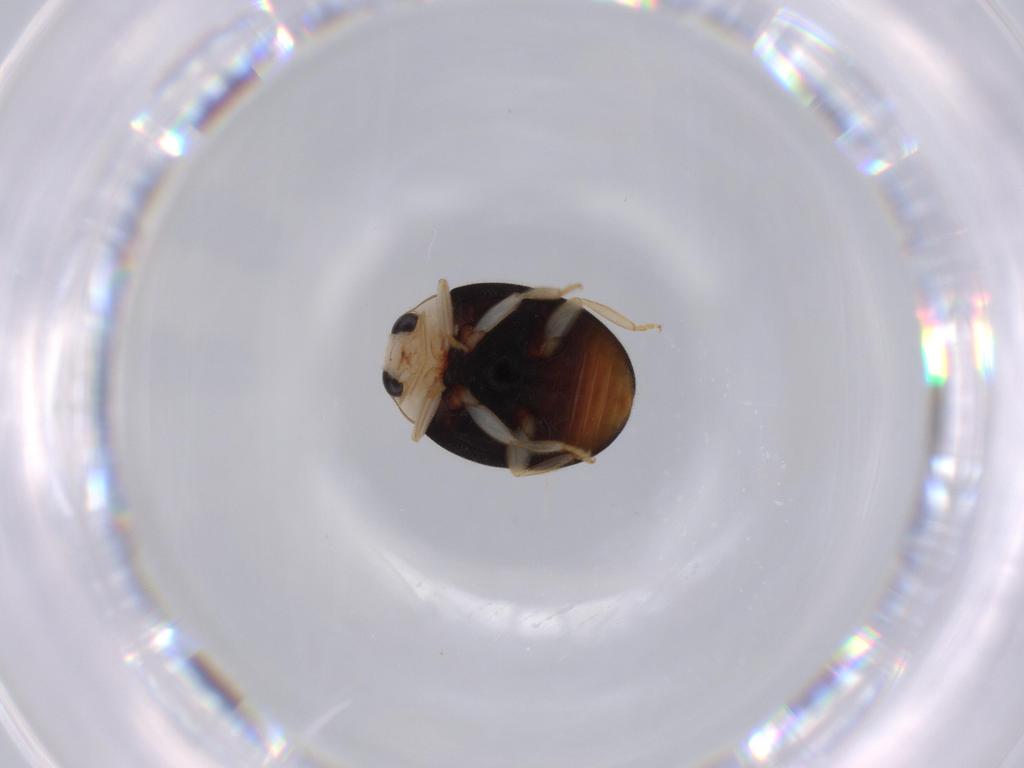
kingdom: Animalia
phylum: Arthropoda
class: Insecta
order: Coleoptera
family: Coccinellidae
